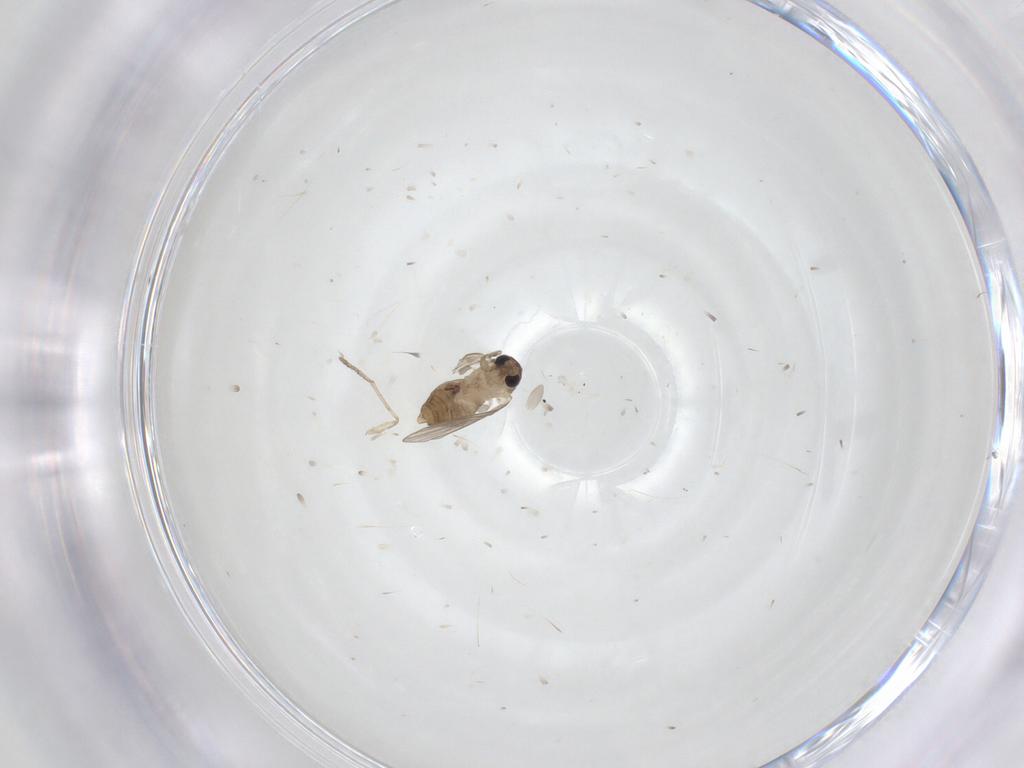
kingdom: Animalia
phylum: Arthropoda
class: Insecta
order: Diptera
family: Psychodidae
